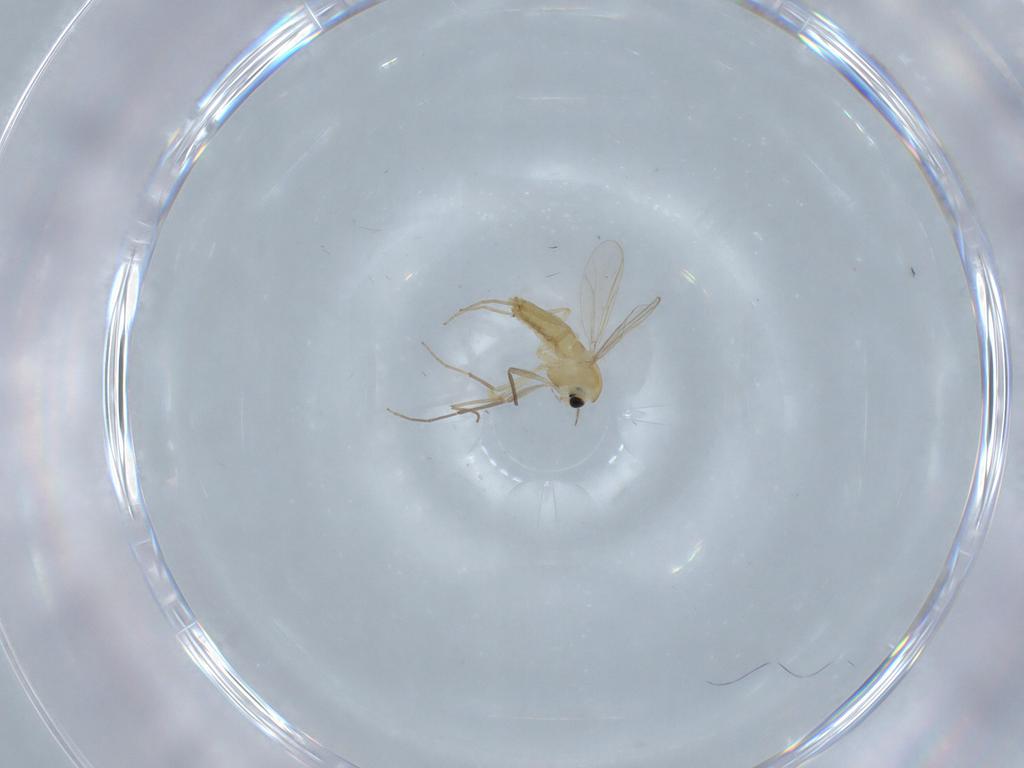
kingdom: Animalia
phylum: Arthropoda
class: Insecta
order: Diptera
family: Chironomidae
